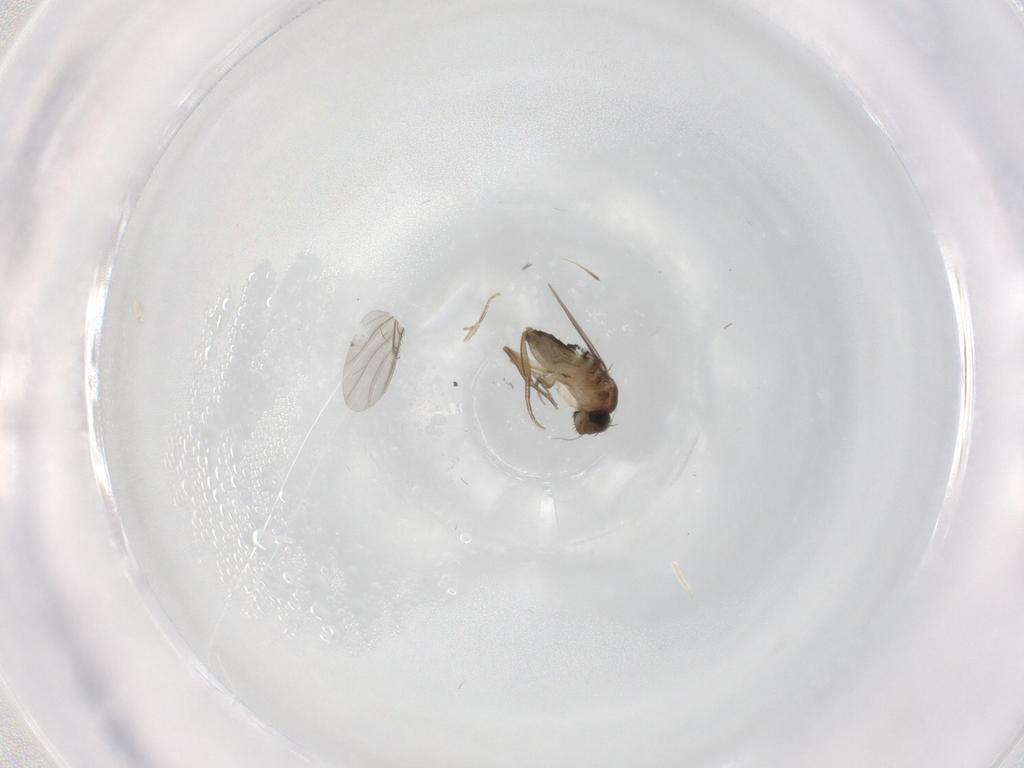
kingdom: Animalia
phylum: Arthropoda
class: Insecta
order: Diptera
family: Phoridae
